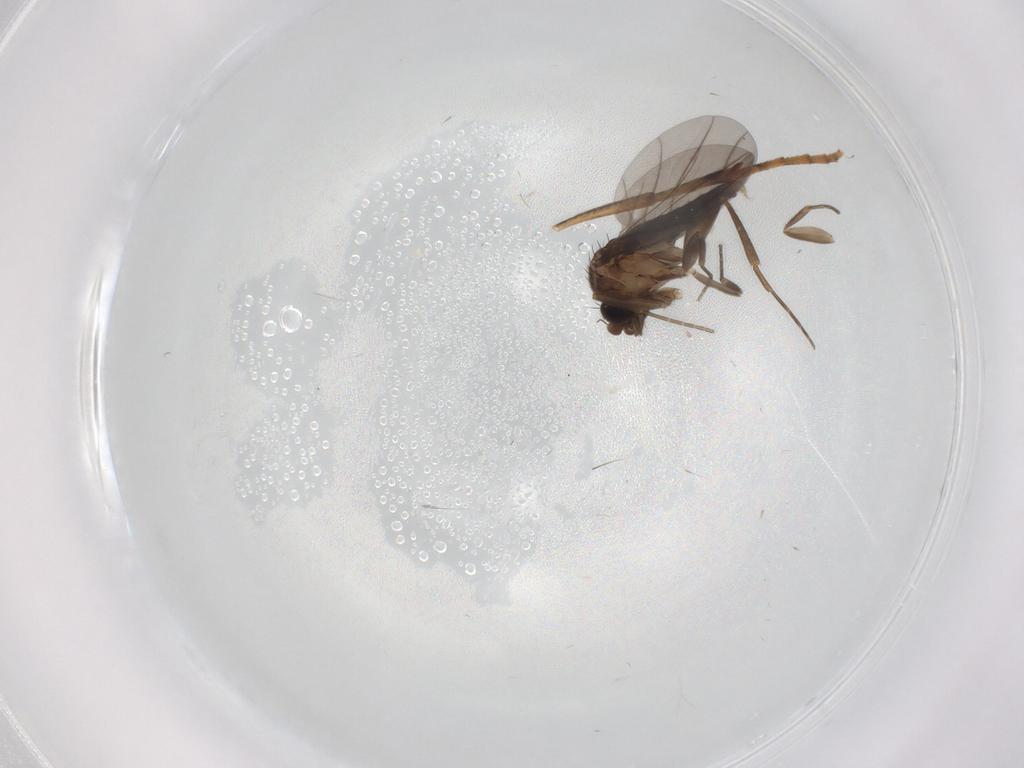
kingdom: Animalia
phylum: Arthropoda
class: Insecta
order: Diptera
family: Cecidomyiidae
